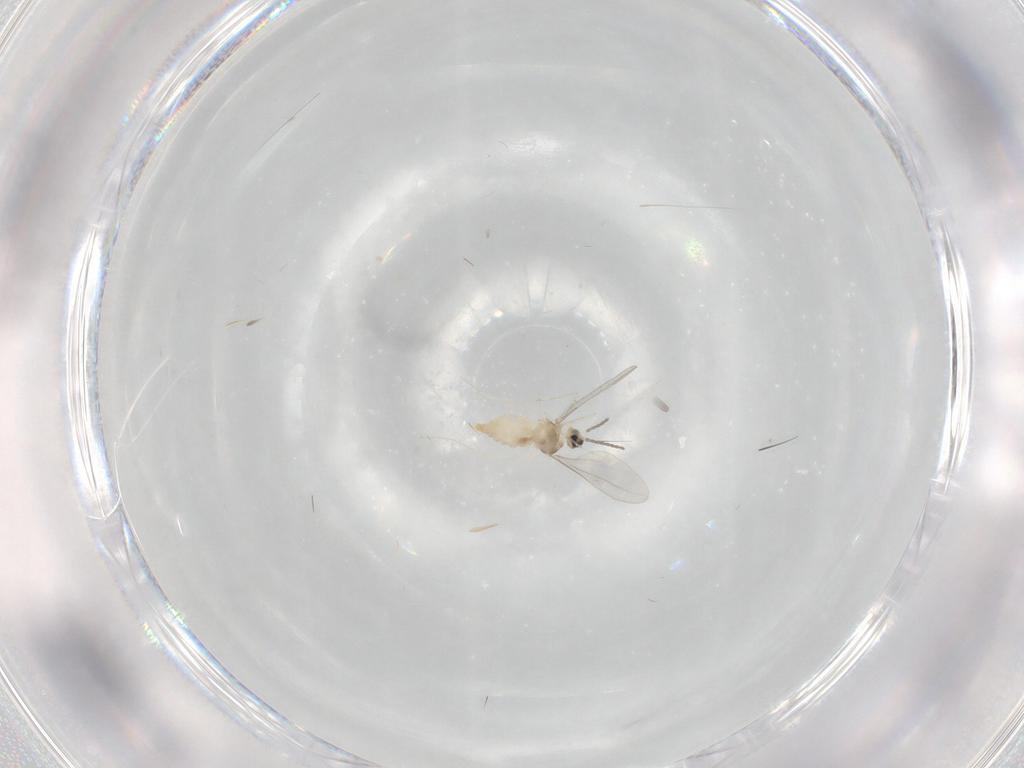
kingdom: Animalia
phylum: Arthropoda
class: Insecta
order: Diptera
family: Cecidomyiidae
